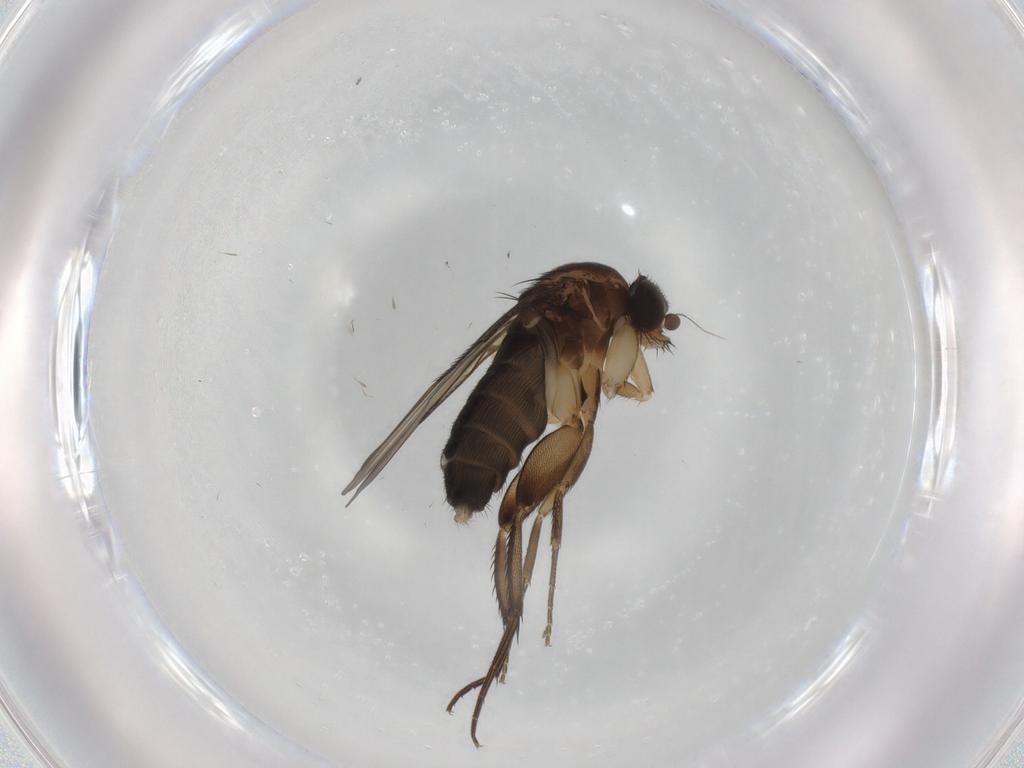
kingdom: Animalia
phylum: Arthropoda
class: Insecta
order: Diptera
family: Phoridae
